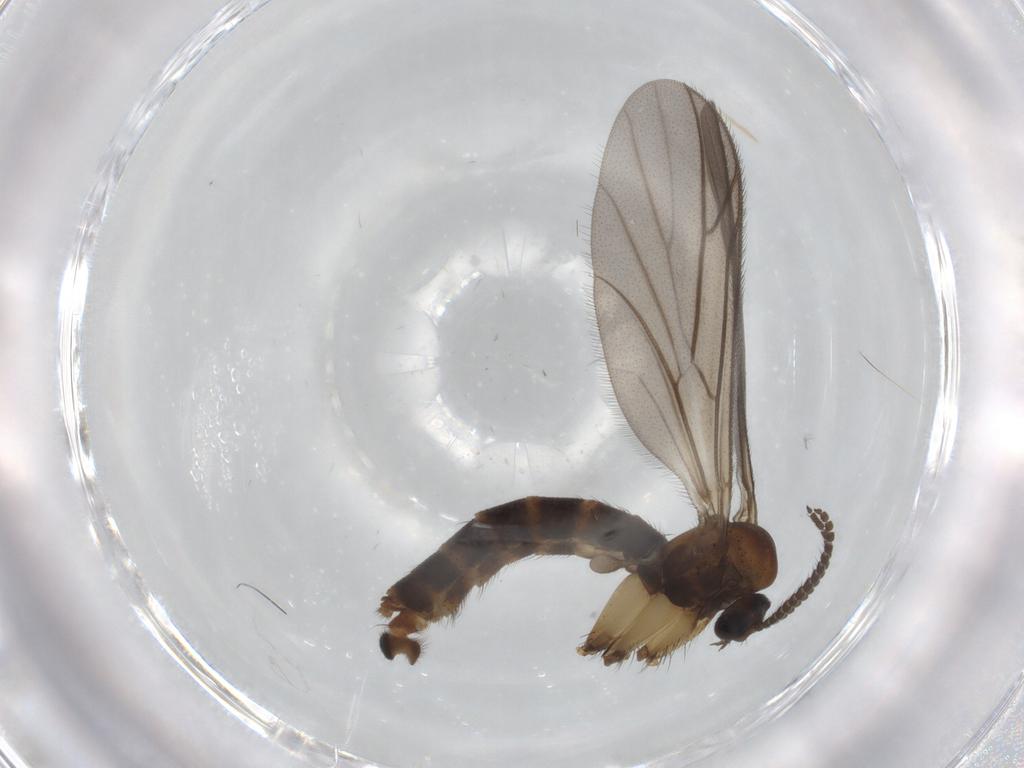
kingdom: Animalia
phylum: Arthropoda
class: Insecta
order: Diptera
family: Ditomyiidae
